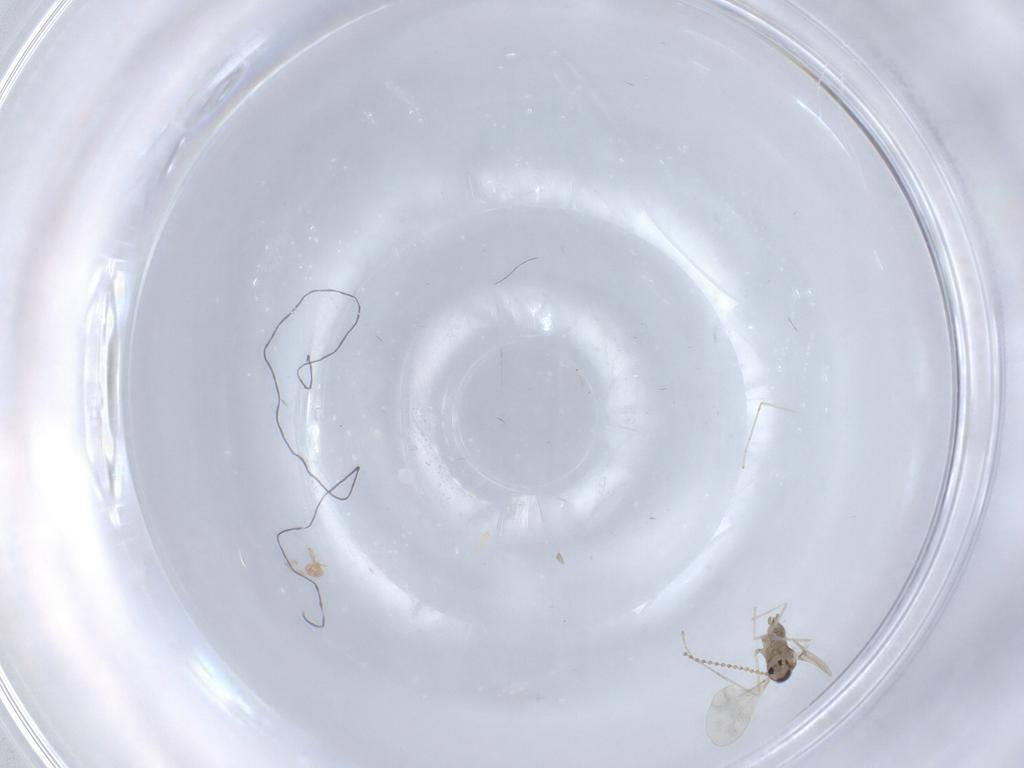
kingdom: Animalia
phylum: Arthropoda
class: Insecta
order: Diptera
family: Cecidomyiidae
